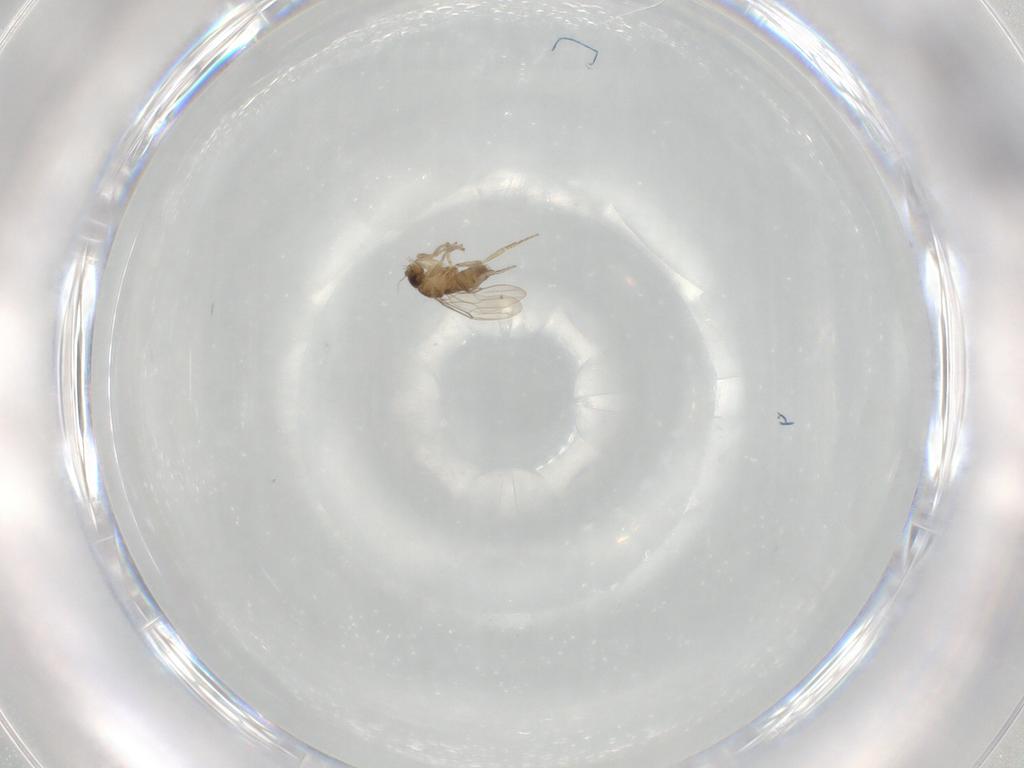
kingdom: Animalia
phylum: Arthropoda
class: Insecta
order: Diptera
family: Phoridae
